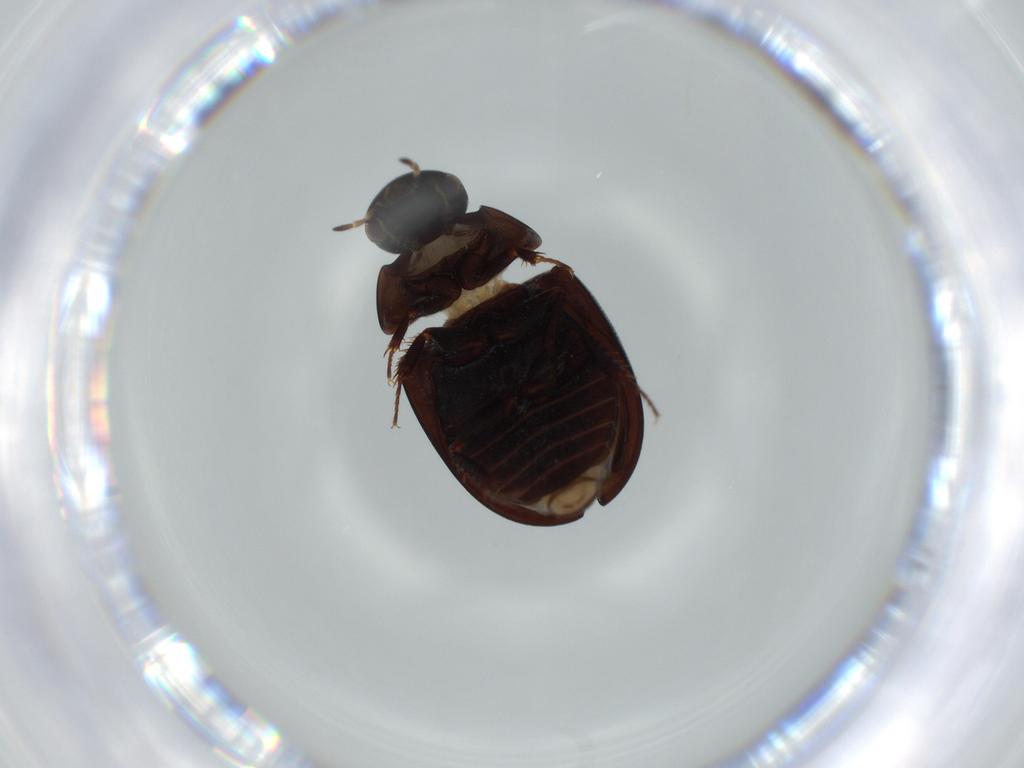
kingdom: Animalia
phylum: Arthropoda
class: Insecta
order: Coleoptera
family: Hydrophilidae
